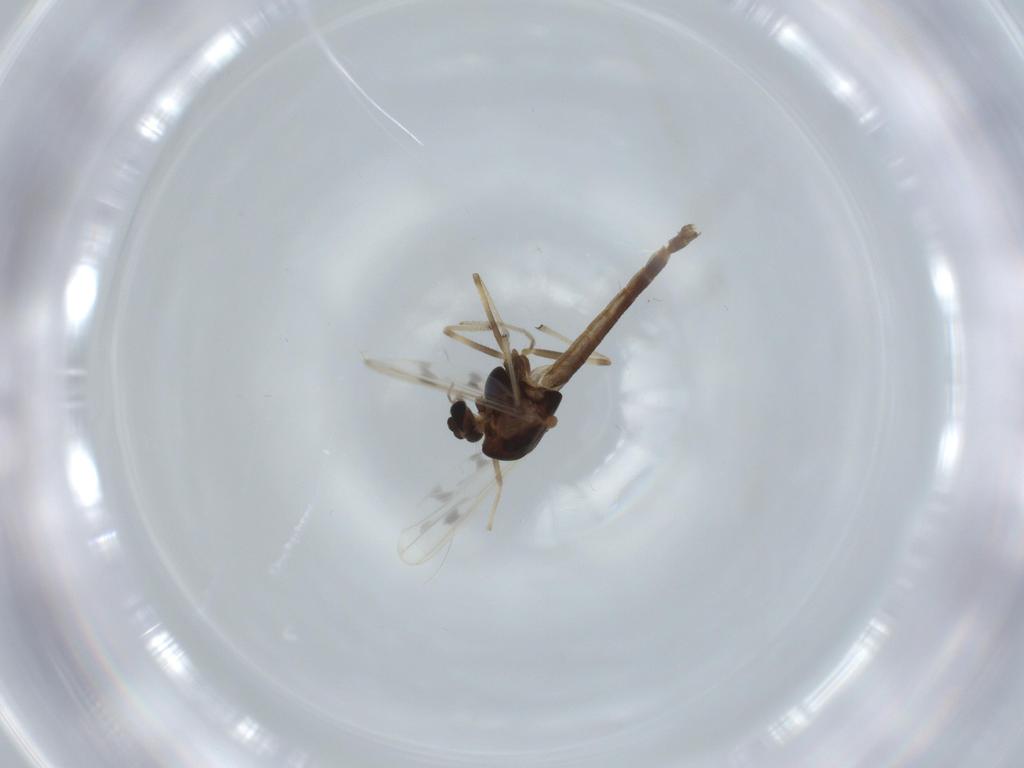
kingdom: Animalia
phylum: Arthropoda
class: Insecta
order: Diptera
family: Chironomidae
